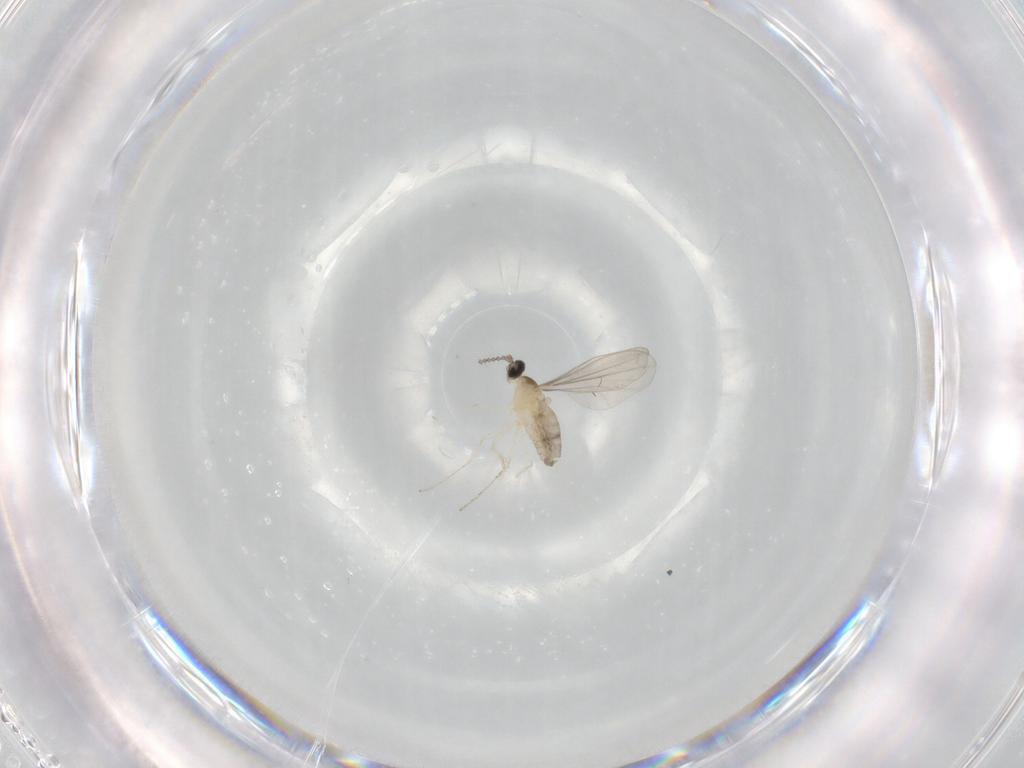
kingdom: Animalia
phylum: Arthropoda
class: Insecta
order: Diptera
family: Cecidomyiidae
